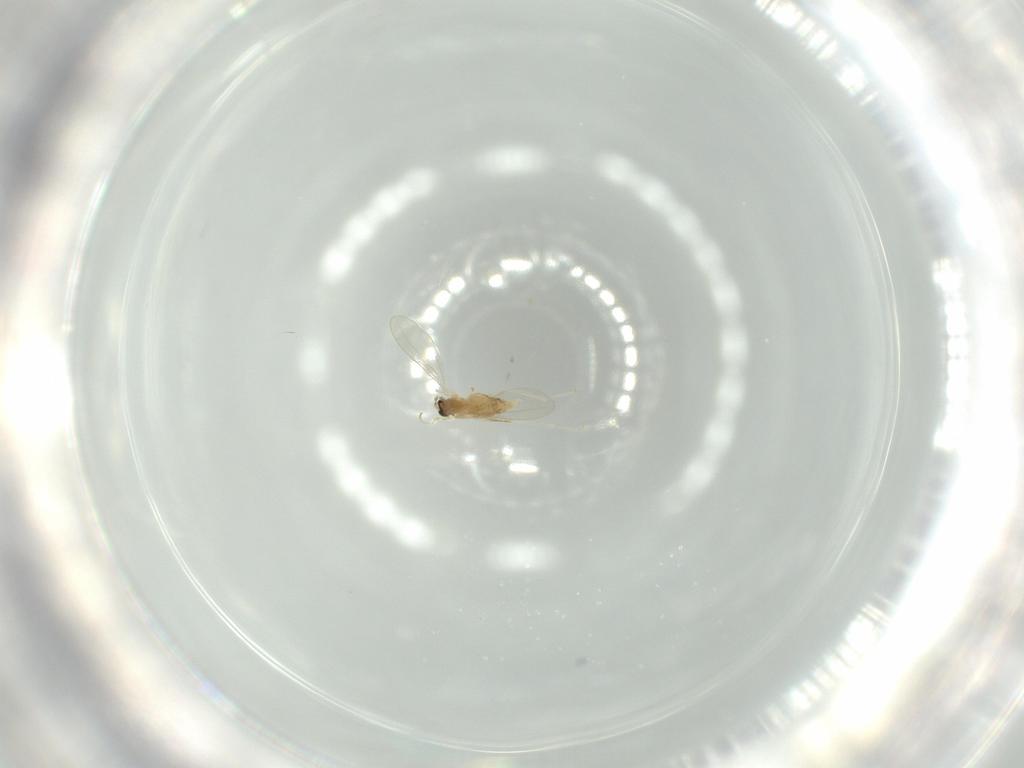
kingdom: Animalia
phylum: Arthropoda
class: Insecta
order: Diptera
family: Cecidomyiidae
